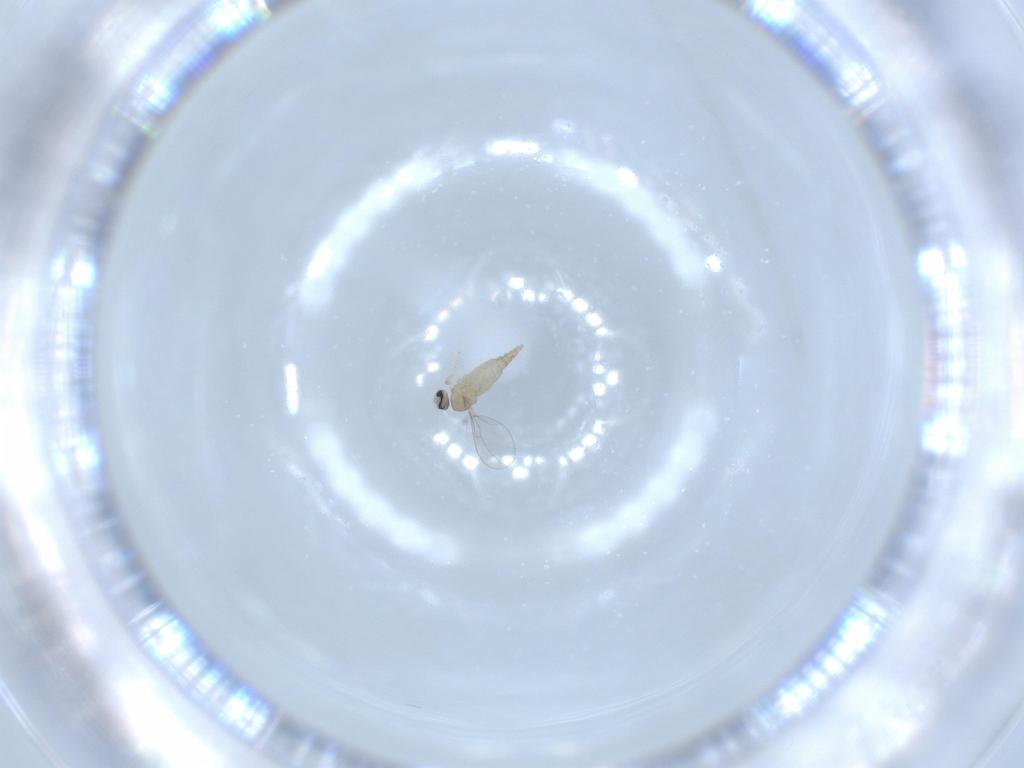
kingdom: Animalia
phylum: Arthropoda
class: Insecta
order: Diptera
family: Cecidomyiidae
